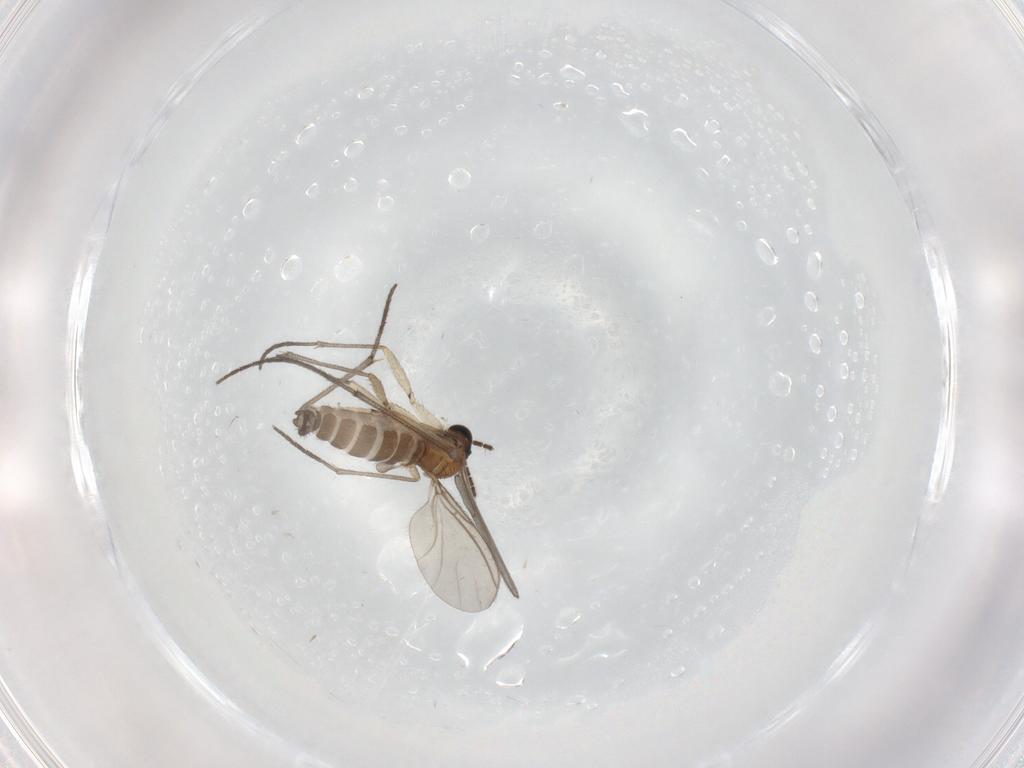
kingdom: Animalia
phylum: Arthropoda
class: Insecta
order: Diptera
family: Sciaridae
